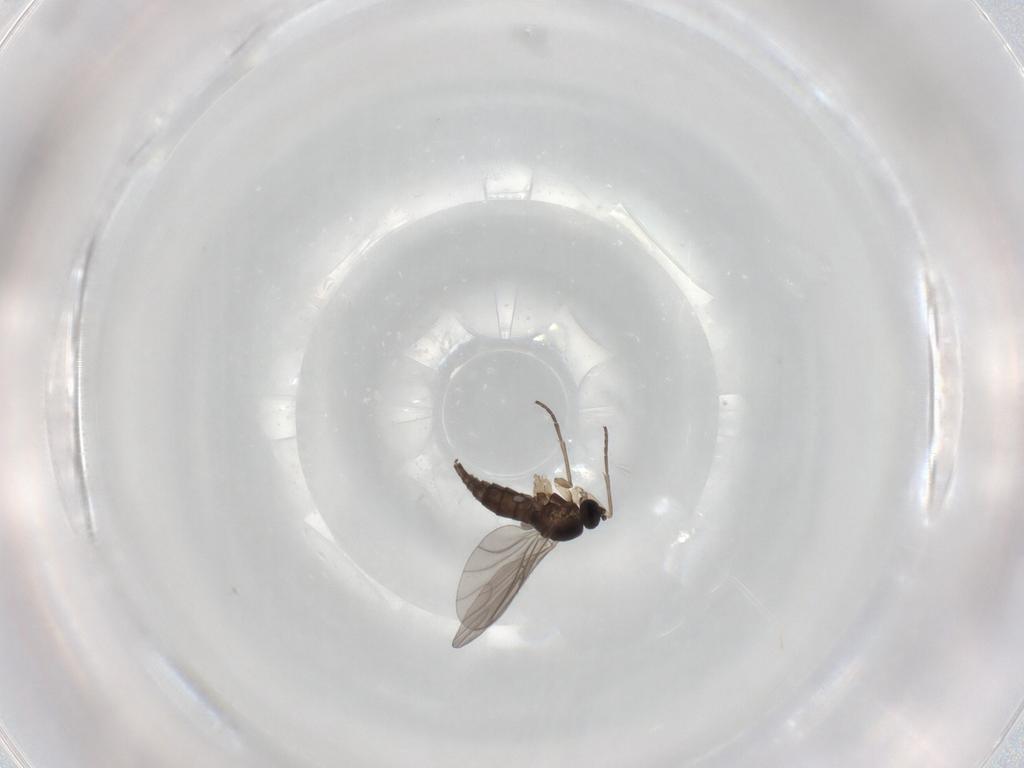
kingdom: Animalia
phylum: Arthropoda
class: Insecta
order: Diptera
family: Sciaridae
